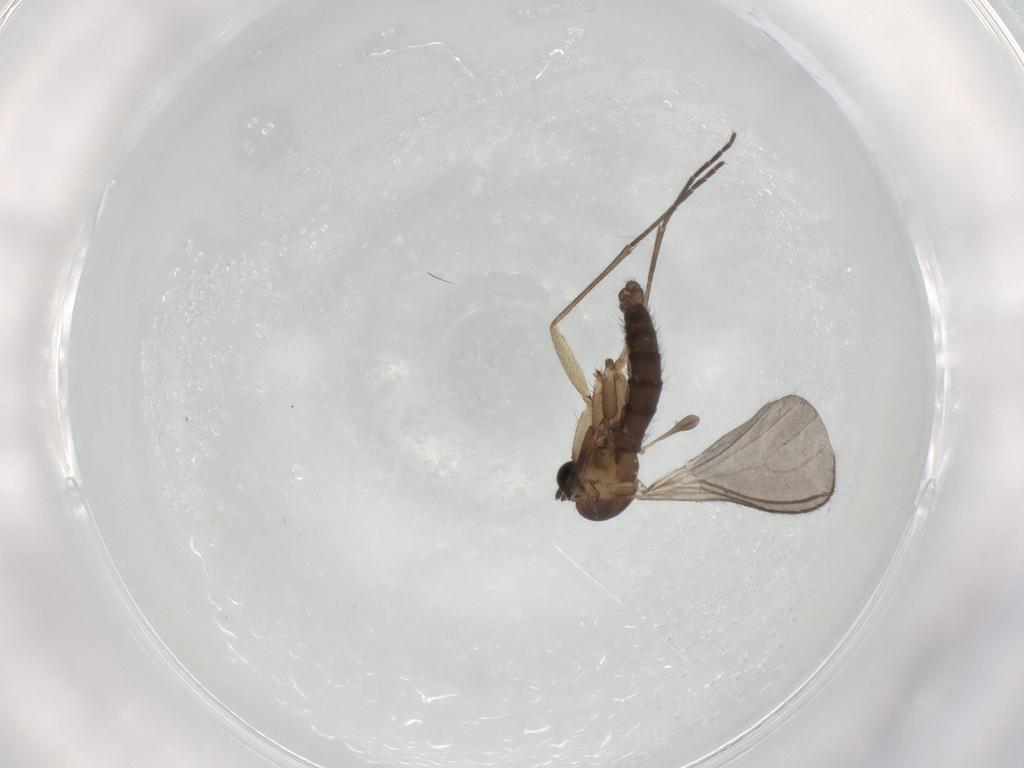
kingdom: Animalia
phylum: Arthropoda
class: Insecta
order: Diptera
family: Sciaridae
